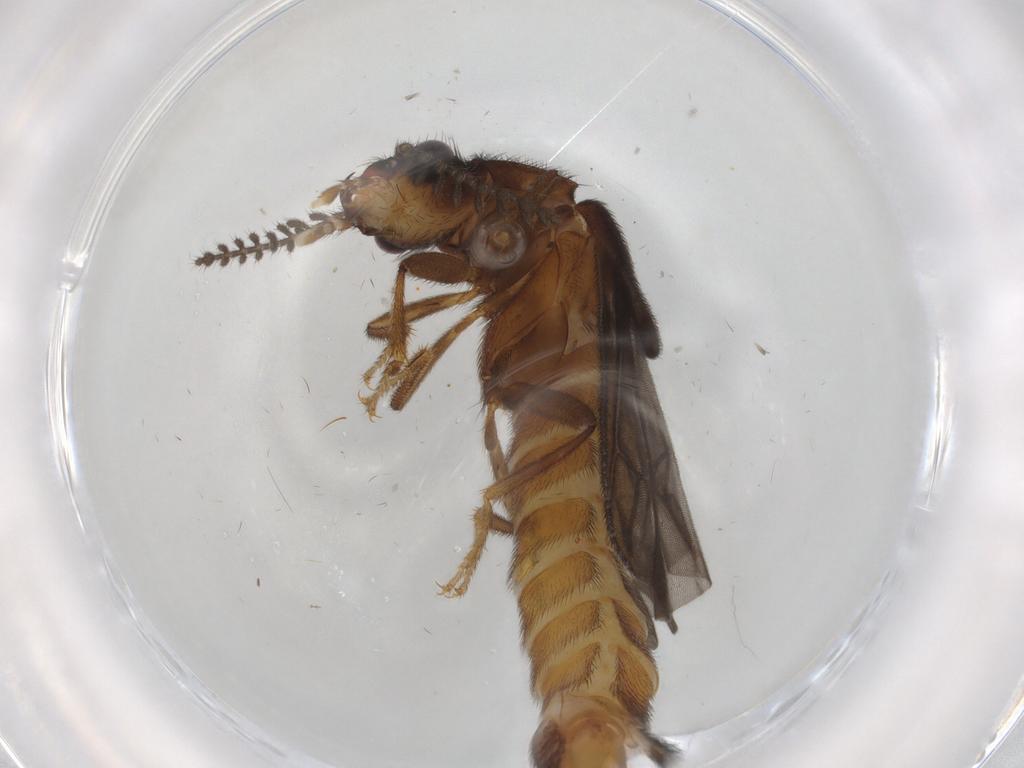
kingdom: Animalia
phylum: Arthropoda
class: Insecta
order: Coleoptera
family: Phengodidae
